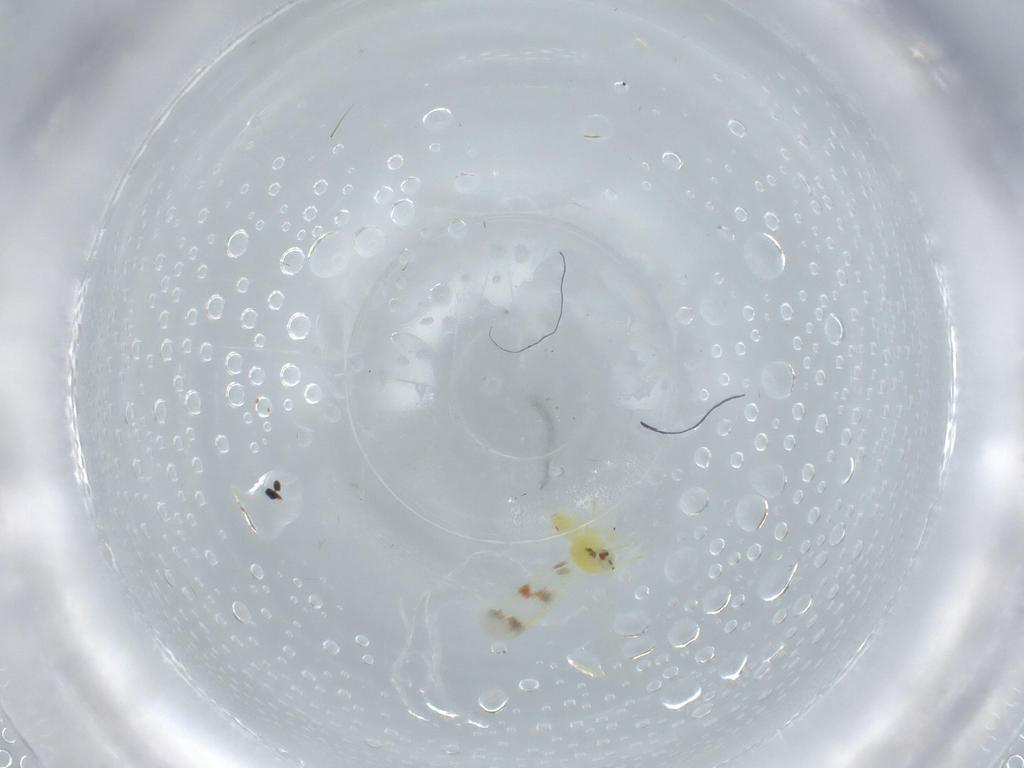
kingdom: Animalia
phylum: Arthropoda
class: Insecta
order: Hemiptera
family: Aleyrodidae
